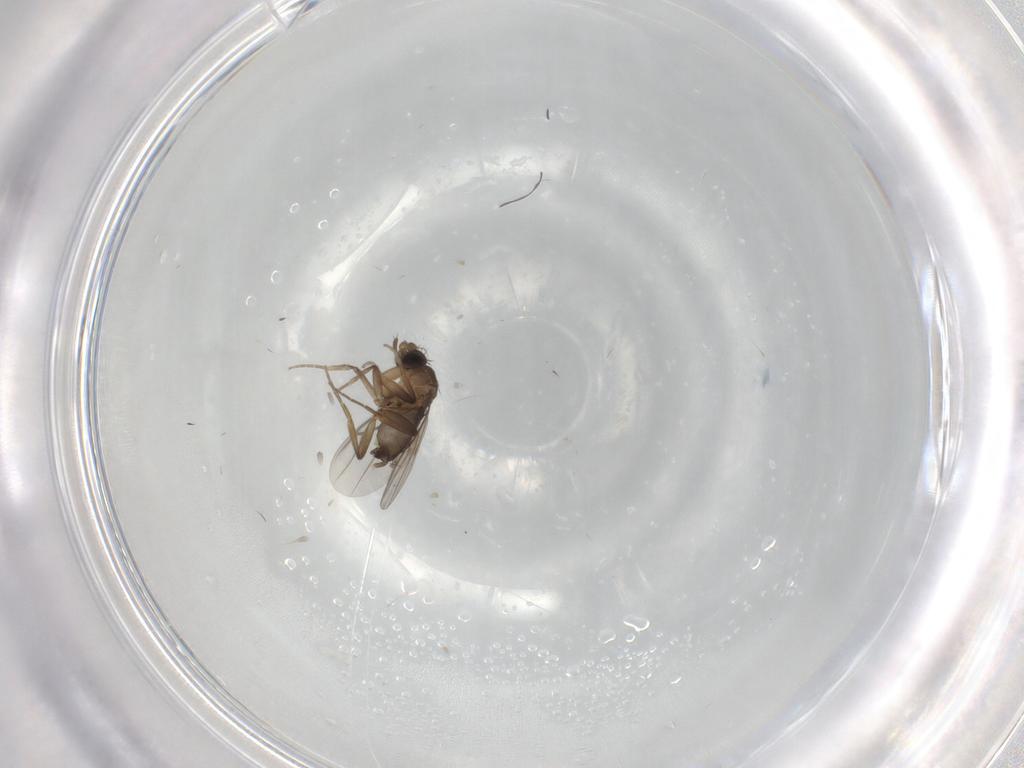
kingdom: Animalia
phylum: Arthropoda
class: Insecta
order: Diptera
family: Phoridae
